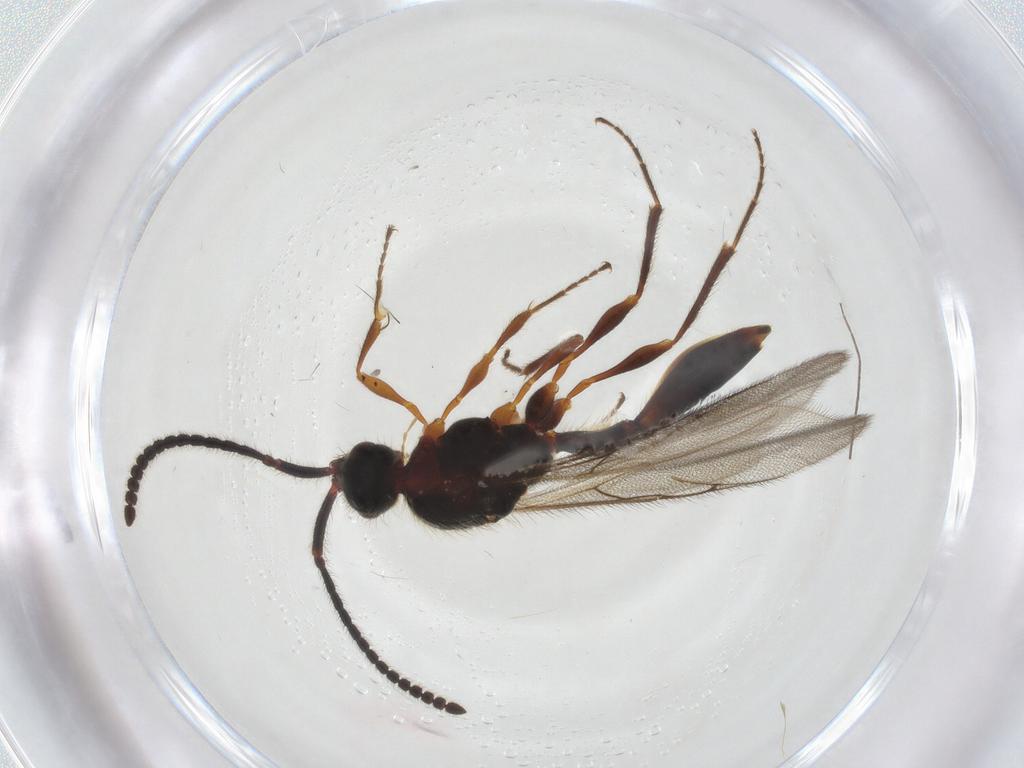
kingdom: Animalia
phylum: Arthropoda
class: Insecta
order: Hymenoptera
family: Diapriidae
